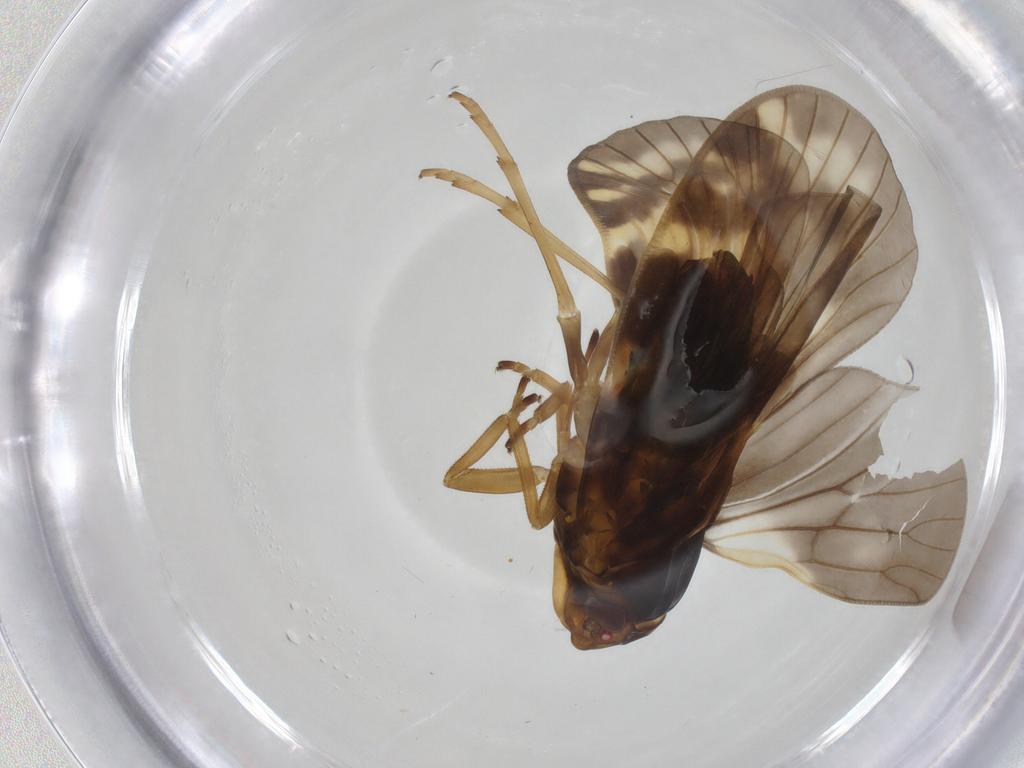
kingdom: Animalia
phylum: Arthropoda
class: Insecta
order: Hemiptera
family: Cixiidae
